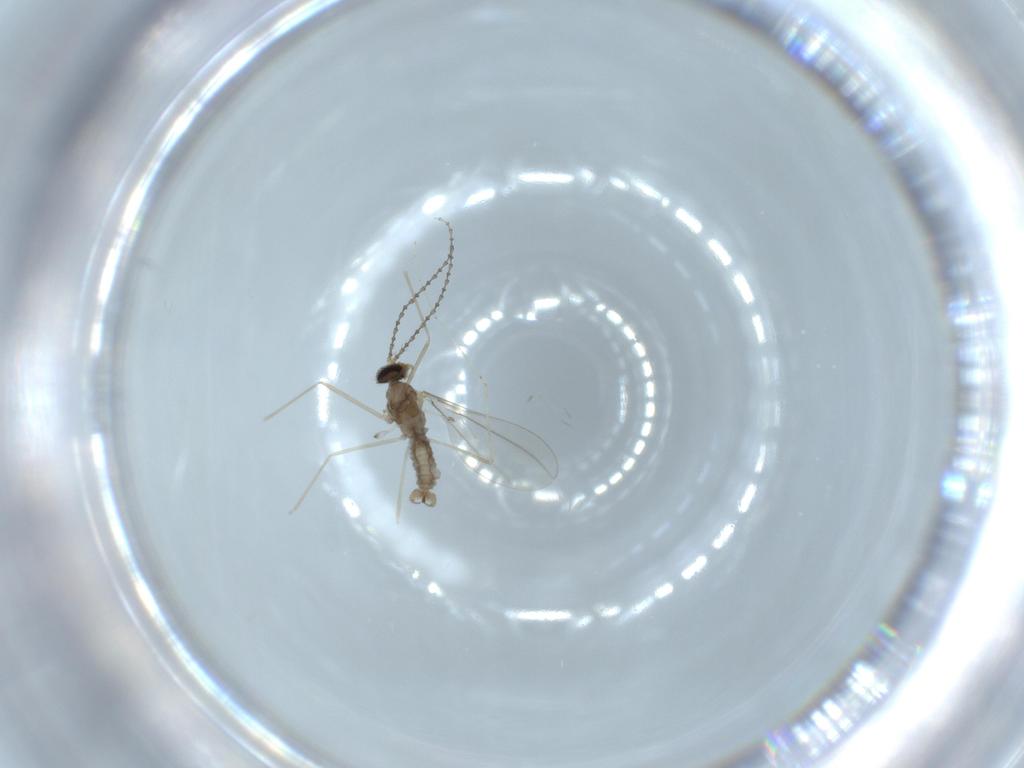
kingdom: Animalia
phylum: Arthropoda
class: Insecta
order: Diptera
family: Cecidomyiidae
